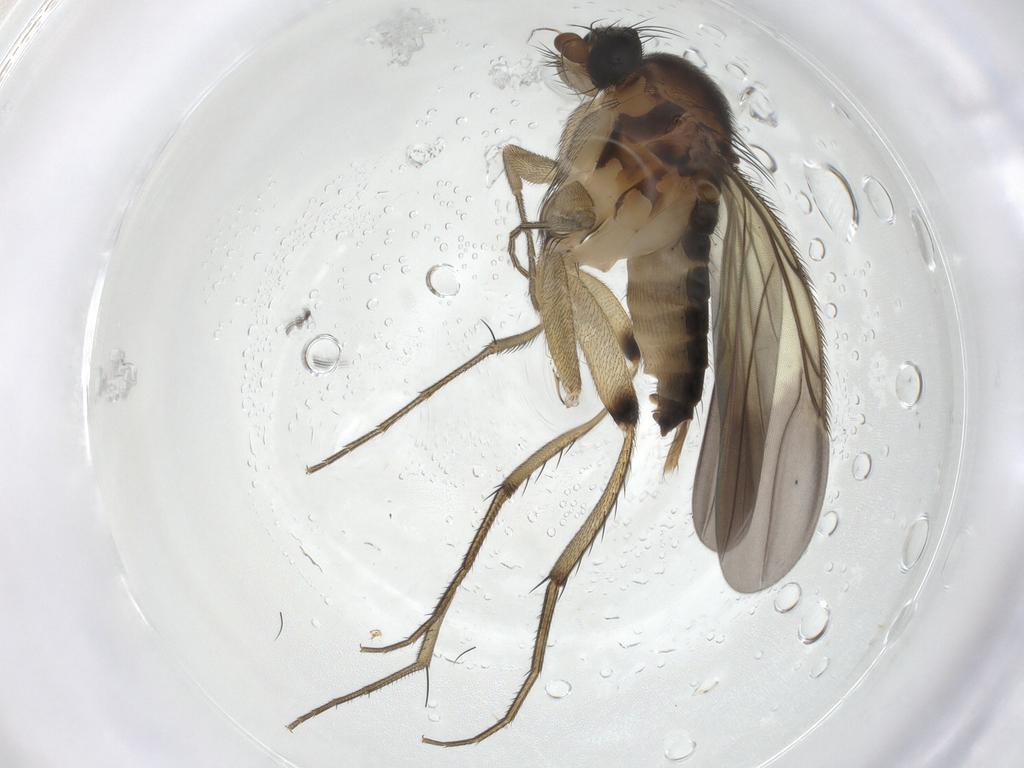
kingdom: Animalia
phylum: Arthropoda
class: Insecta
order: Diptera
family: Phoridae
